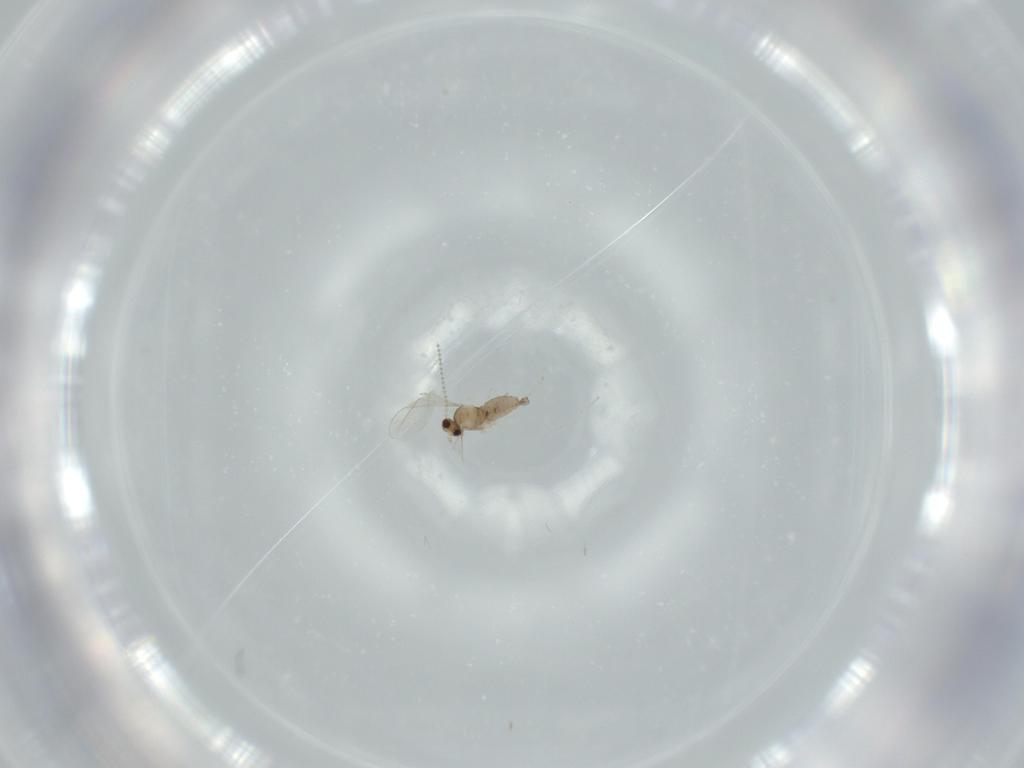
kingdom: Animalia
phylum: Arthropoda
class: Insecta
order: Diptera
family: Cecidomyiidae
